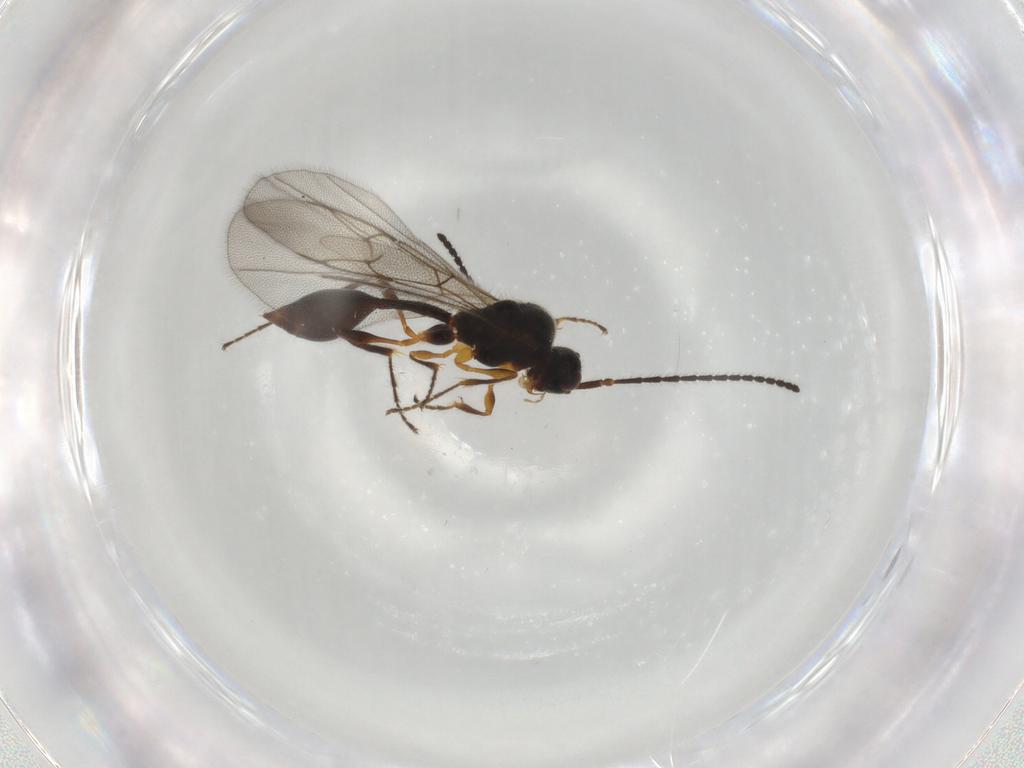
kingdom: Animalia
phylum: Arthropoda
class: Insecta
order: Hymenoptera
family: Diapriidae
